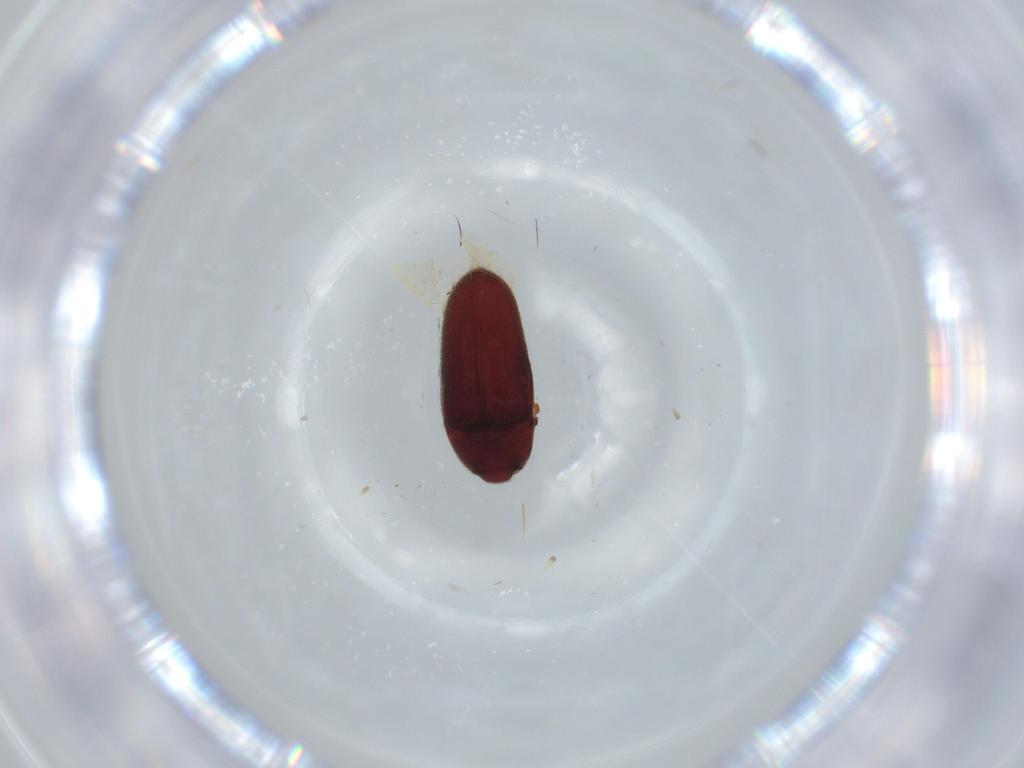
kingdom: Animalia
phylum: Arthropoda
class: Insecta
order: Coleoptera
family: Throscidae
